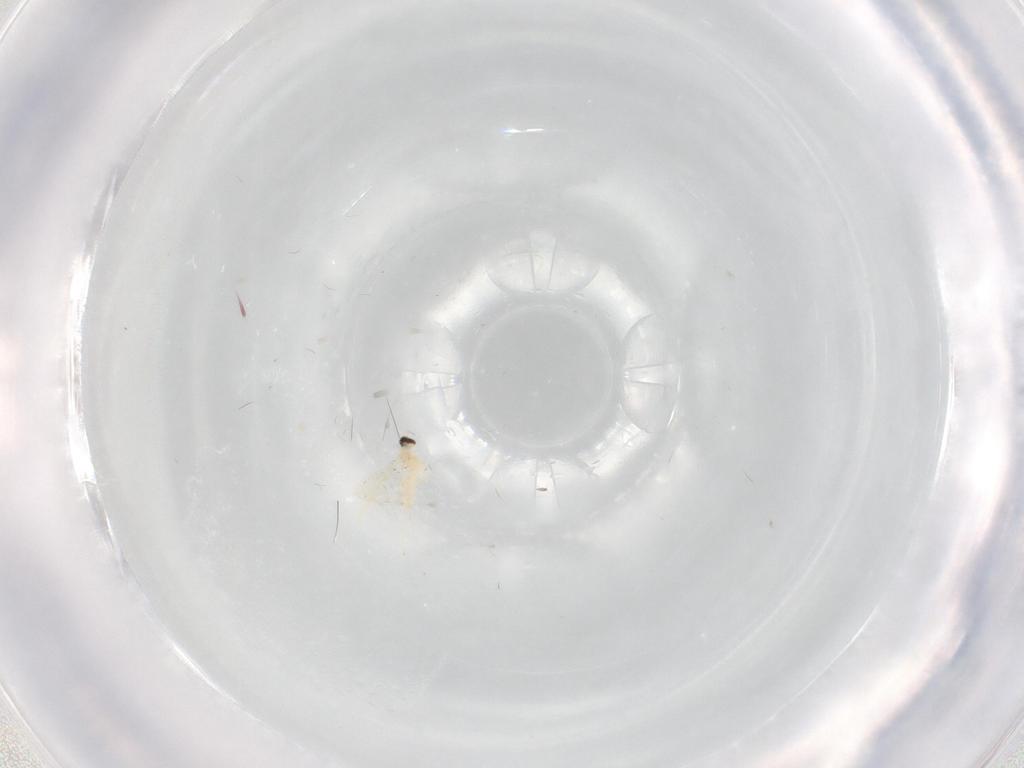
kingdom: Animalia
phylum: Arthropoda
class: Insecta
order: Diptera
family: Cecidomyiidae
